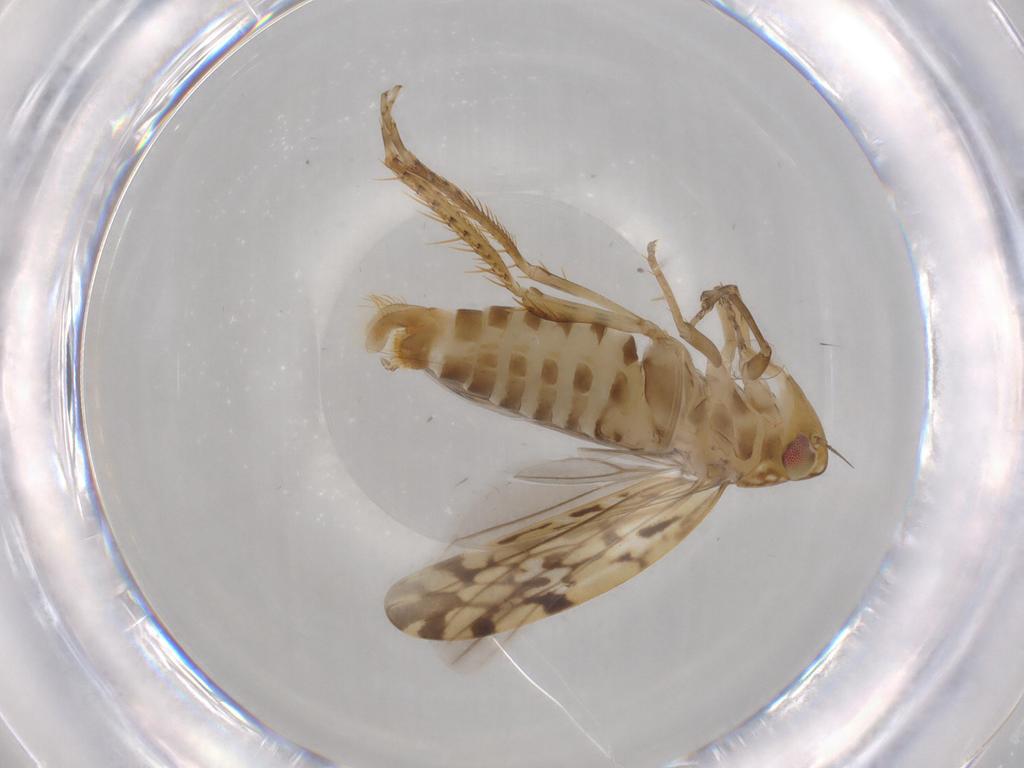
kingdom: Animalia
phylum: Arthropoda
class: Insecta
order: Hemiptera
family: Cicadellidae
